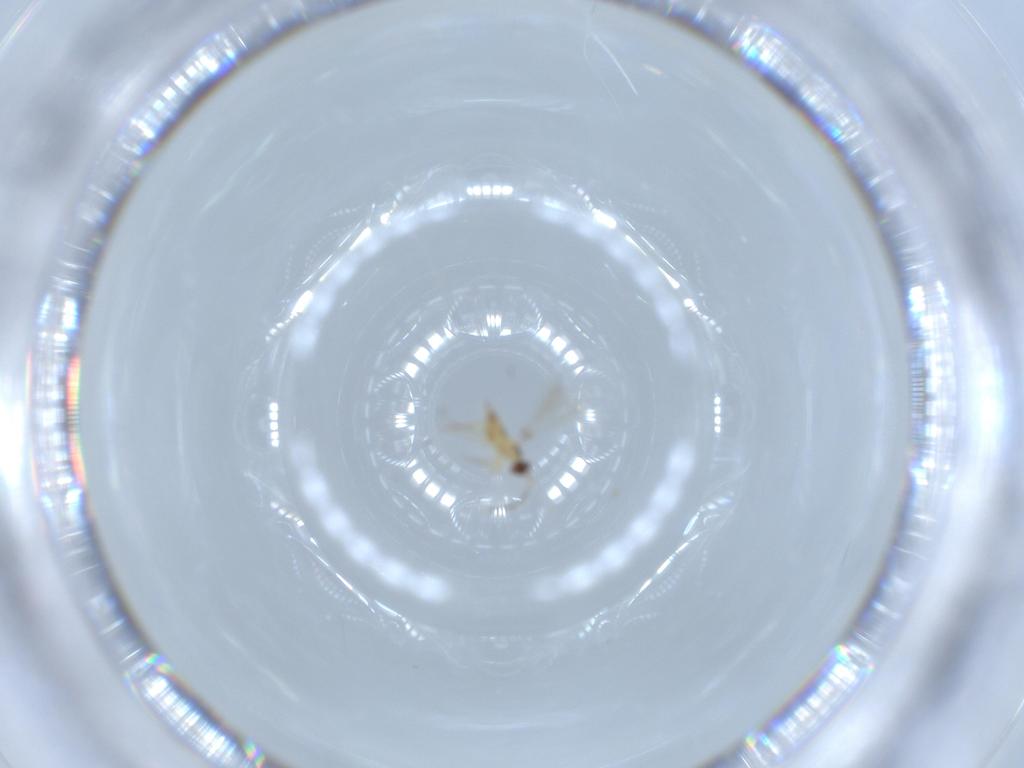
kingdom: Animalia
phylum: Arthropoda
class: Insecta
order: Hymenoptera
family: Mymaridae
